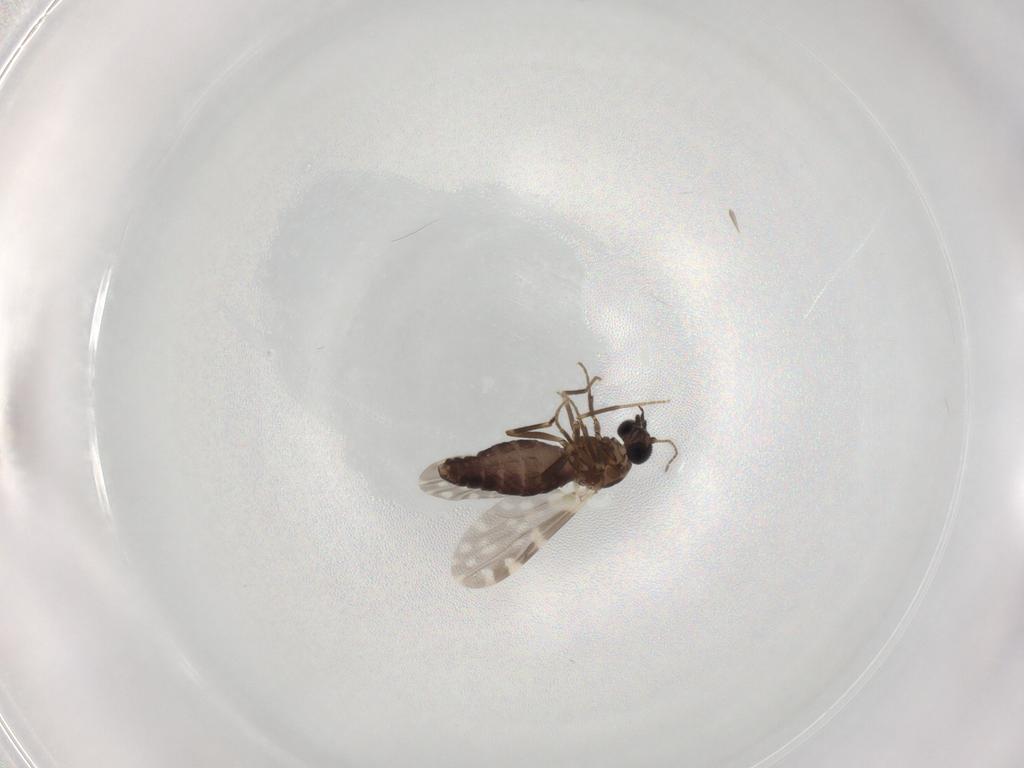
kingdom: Animalia
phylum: Arthropoda
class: Insecta
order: Diptera
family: Ceratopogonidae
